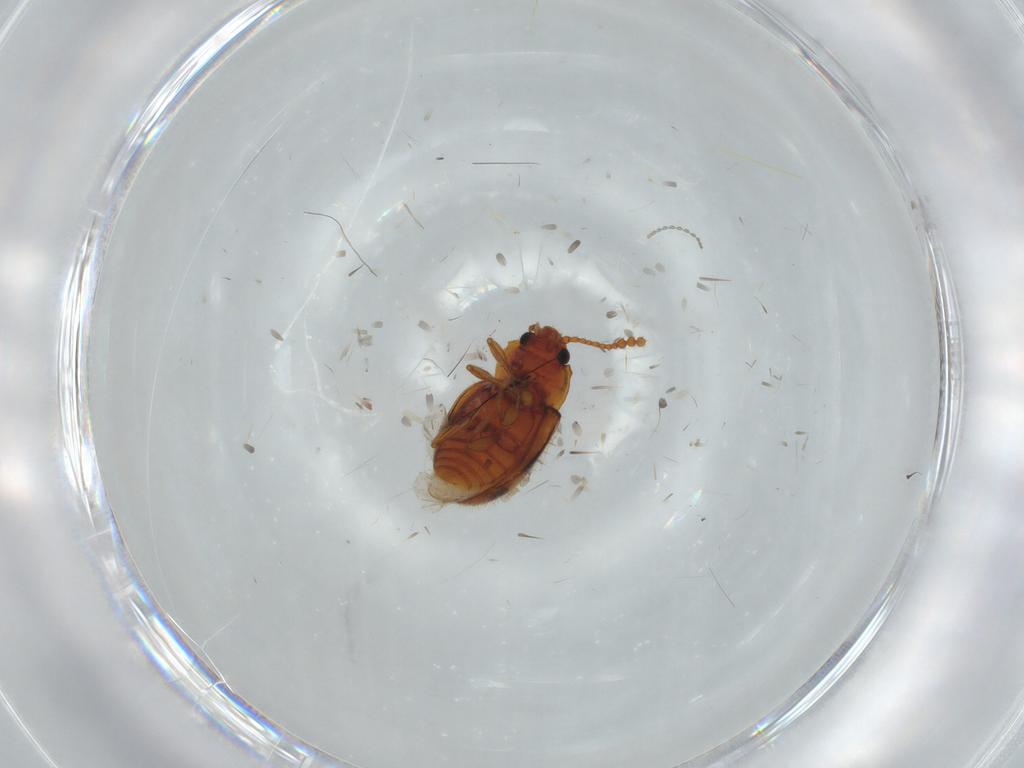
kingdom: Animalia
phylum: Arthropoda
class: Insecta
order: Coleoptera
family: Erotylidae
